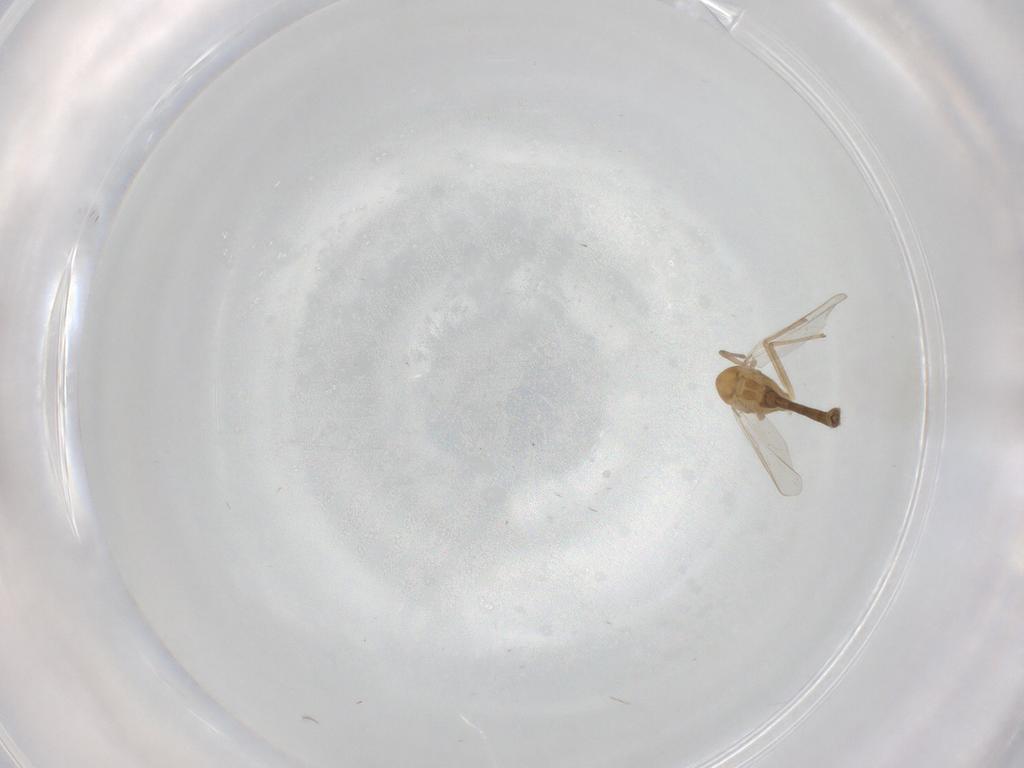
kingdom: Animalia
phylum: Arthropoda
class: Insecta
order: Diptera
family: Chironomidae
